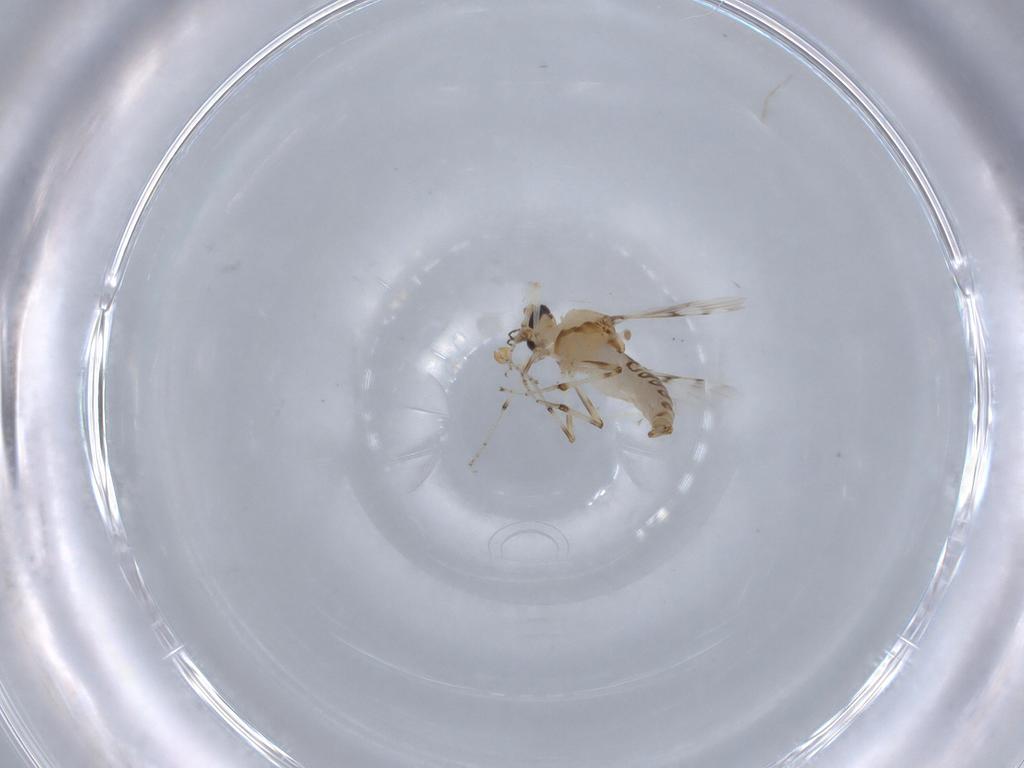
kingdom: Animalia
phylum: Arthropoda
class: Insecta
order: Diptera
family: Ceratopogonidae
